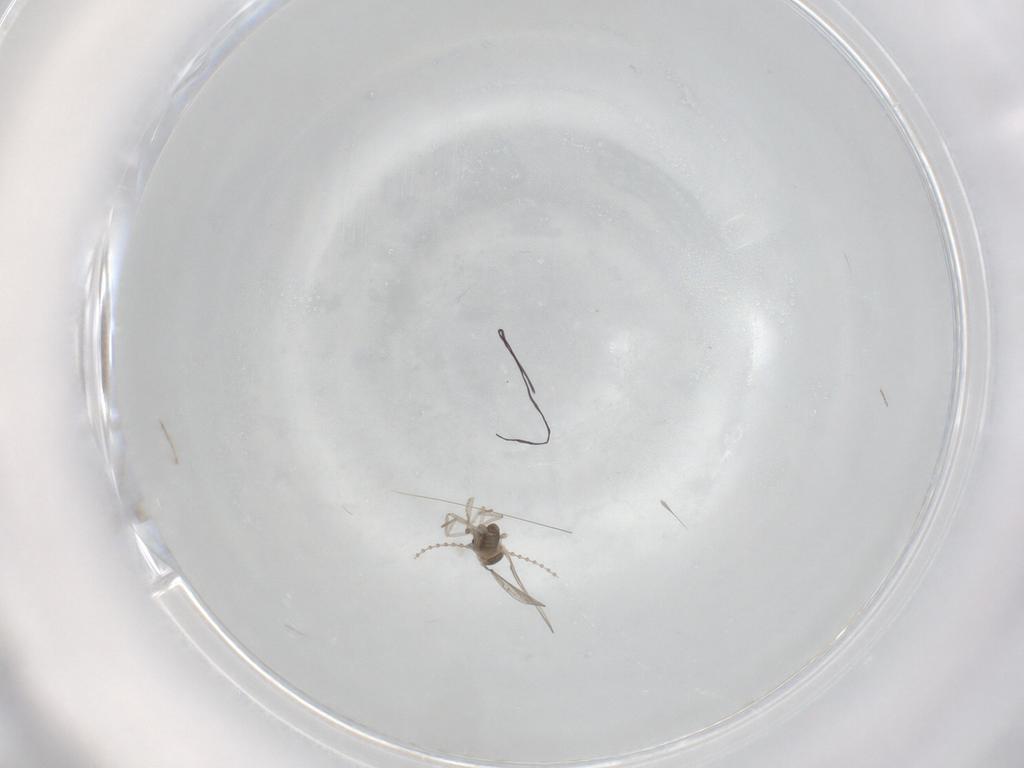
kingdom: Animalia
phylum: Arthropoda
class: Insecta
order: Diptera
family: Cecidomyiidae
